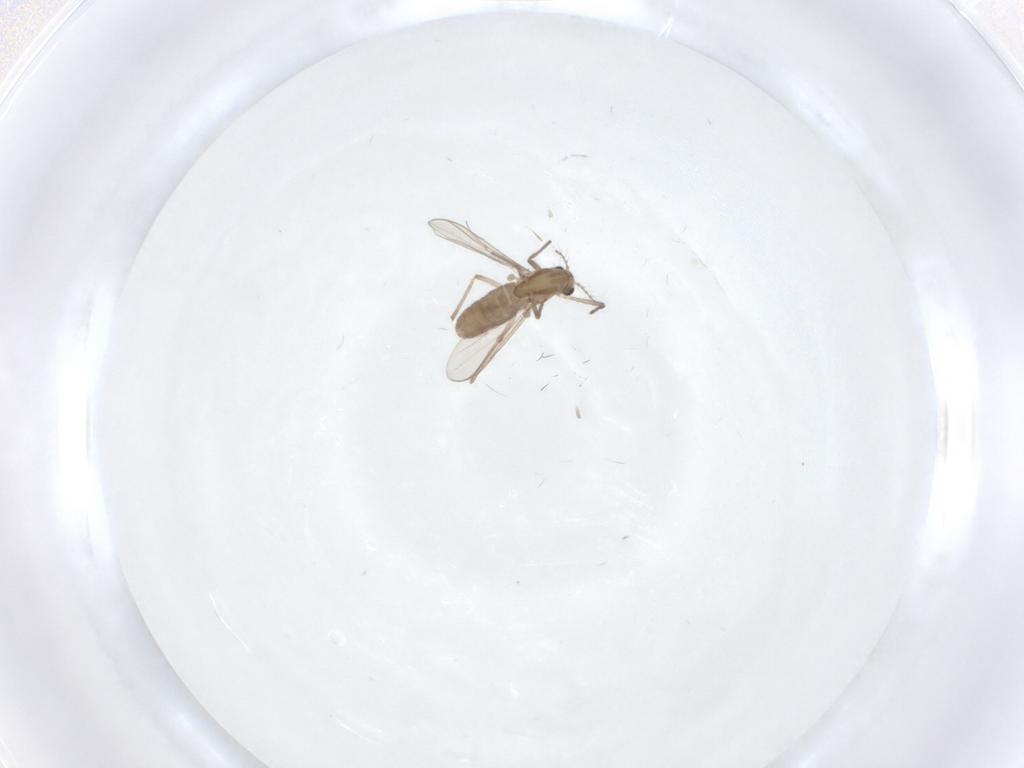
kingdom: Animalia
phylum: Arthropoda
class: Insecta
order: Diptera
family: Chironomidae
